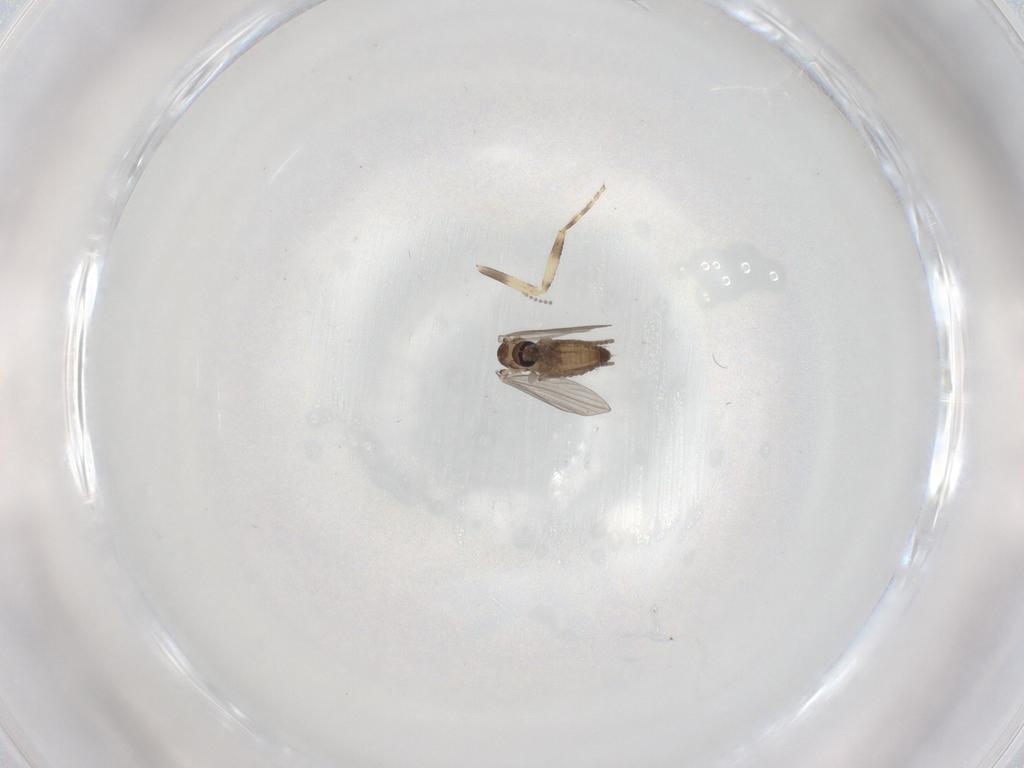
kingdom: Animalia
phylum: Arthropoda
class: Insecta
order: Diptera
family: Psychodidae
